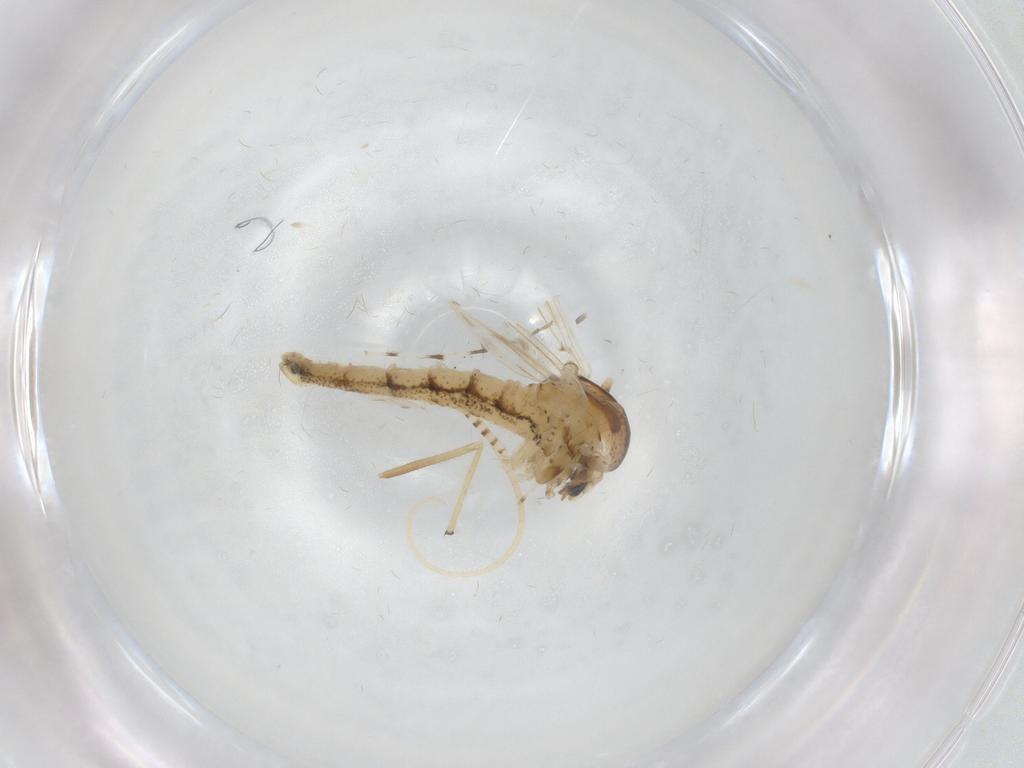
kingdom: Animalia
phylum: Arthropoda
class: Insecta
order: Diptera
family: Chaoboridae
